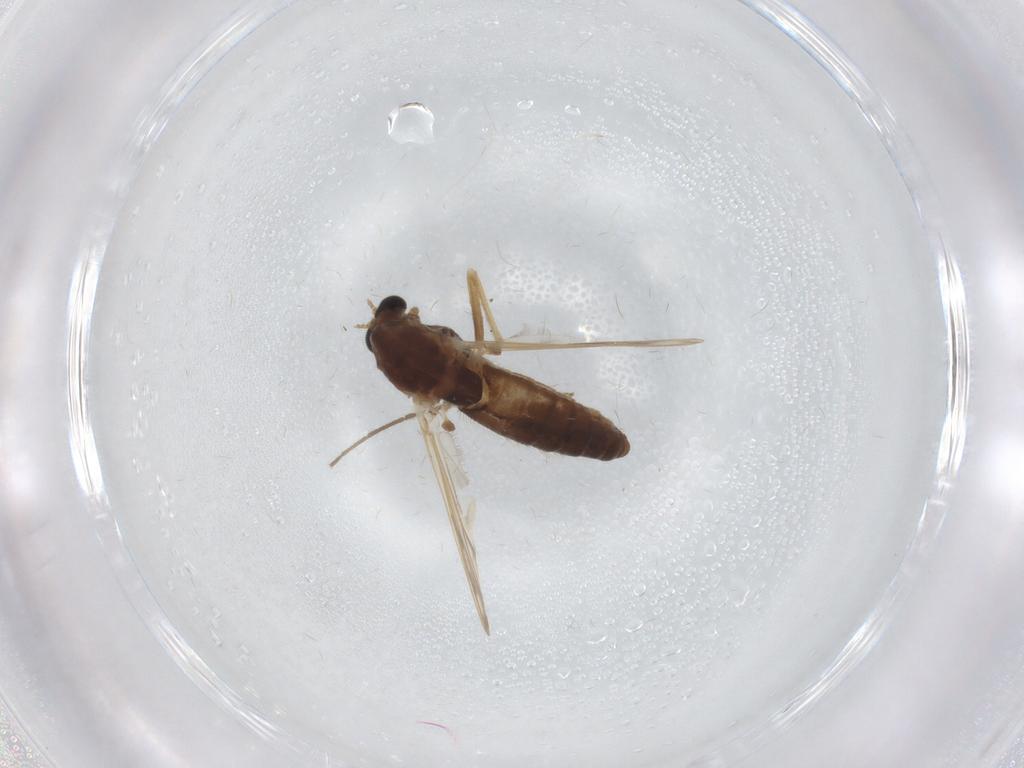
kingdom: Animalia
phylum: Arthropoda
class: Insecta
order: Diptera
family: Chironomidae
